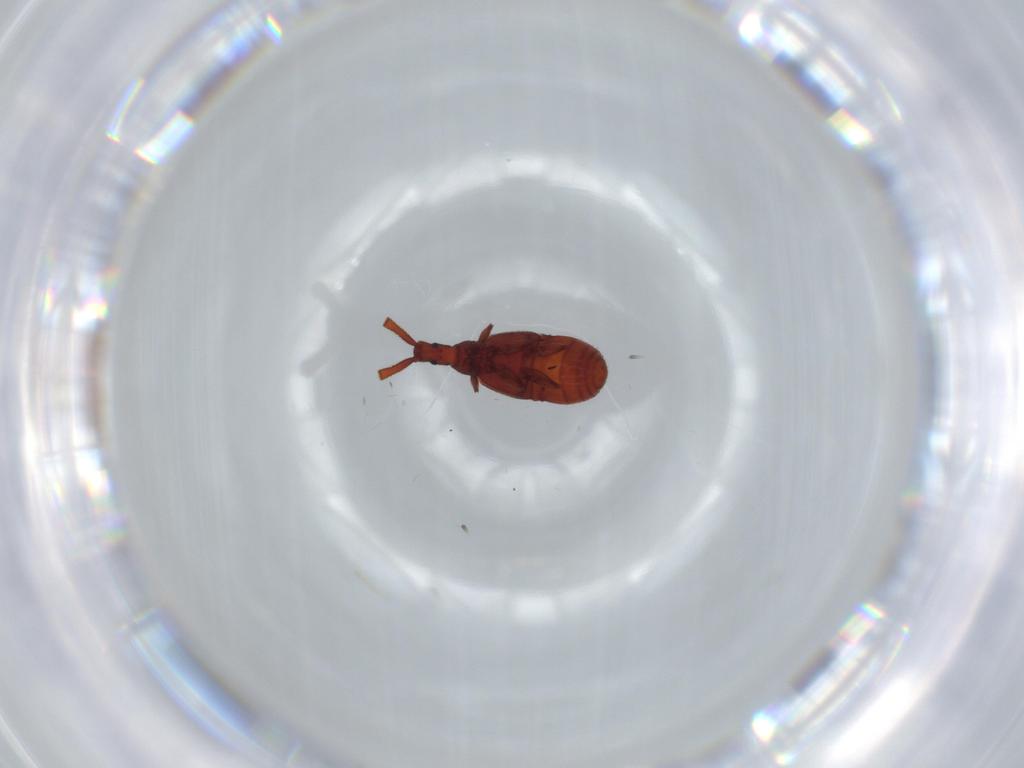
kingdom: Animalia
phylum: Arthropoda
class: Insecta
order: Coleoptera
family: Staphylinidae
